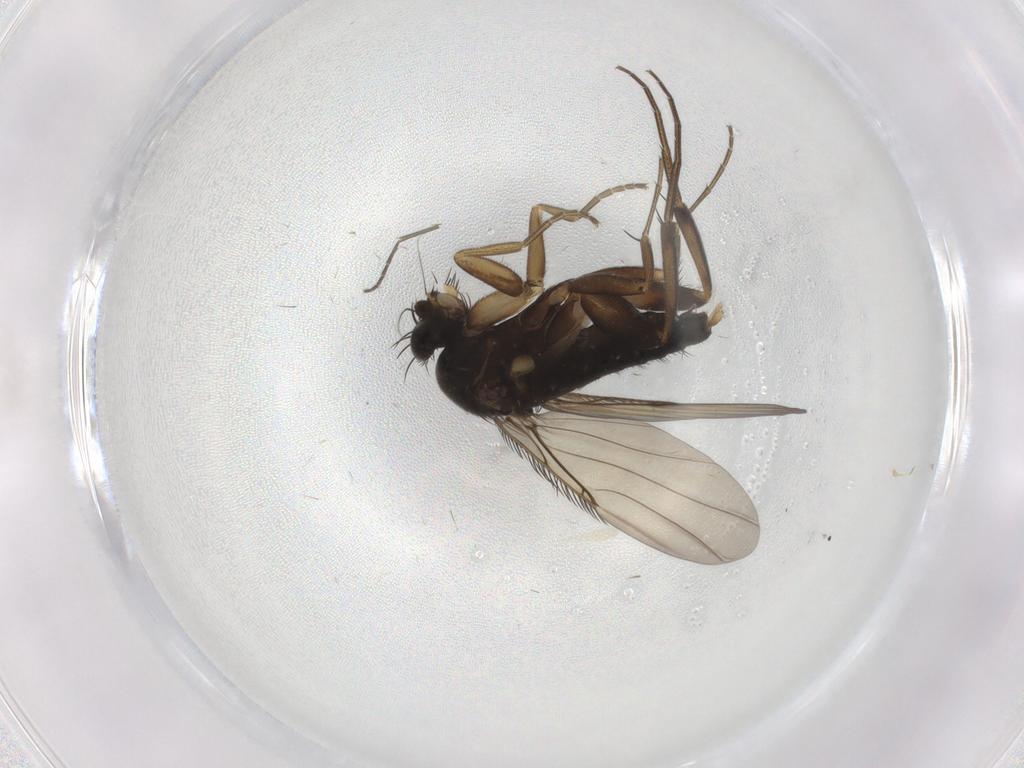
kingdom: Animalia
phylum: Arthropoda
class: Insecta
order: Diptera
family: Phoridae
